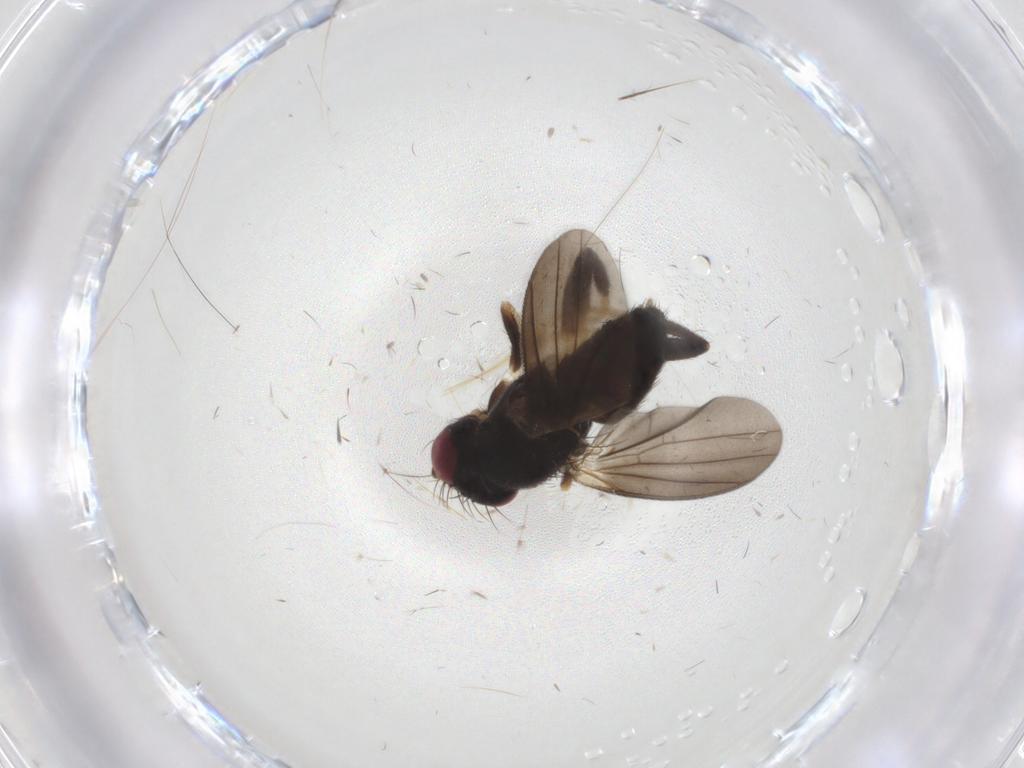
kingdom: Animalia
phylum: Arthropoda
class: Insecta
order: Diptera
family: Clusiidae
